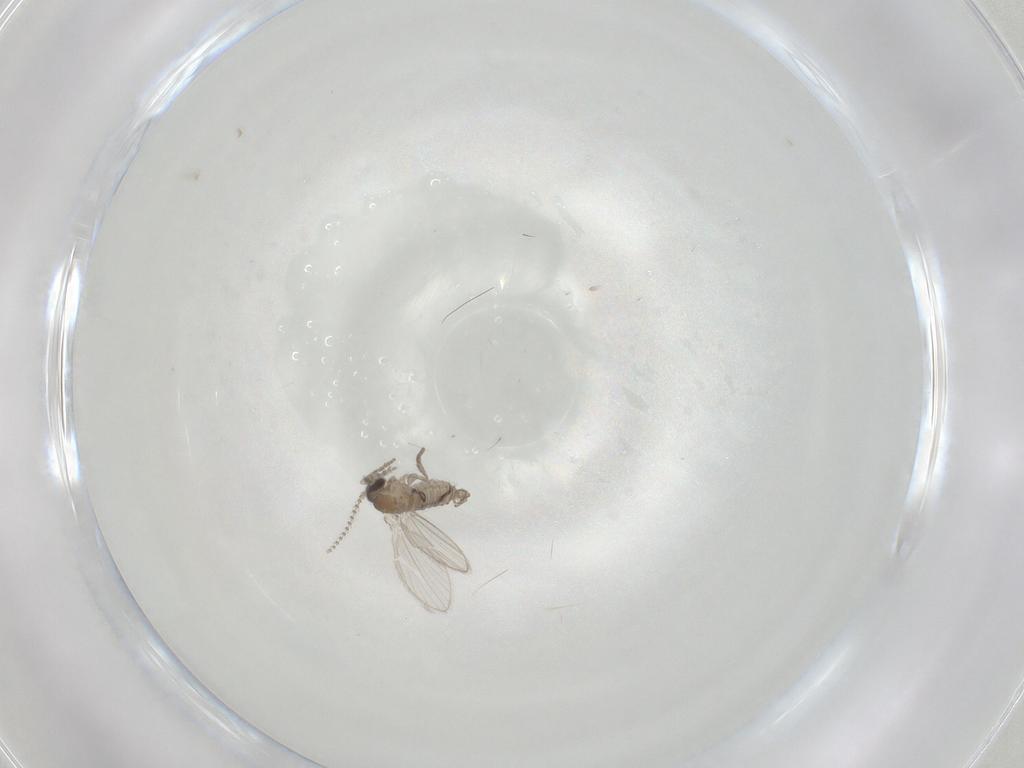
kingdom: Animalia
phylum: Arthropoda
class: Insecta
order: Diptera
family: Psychodidae
